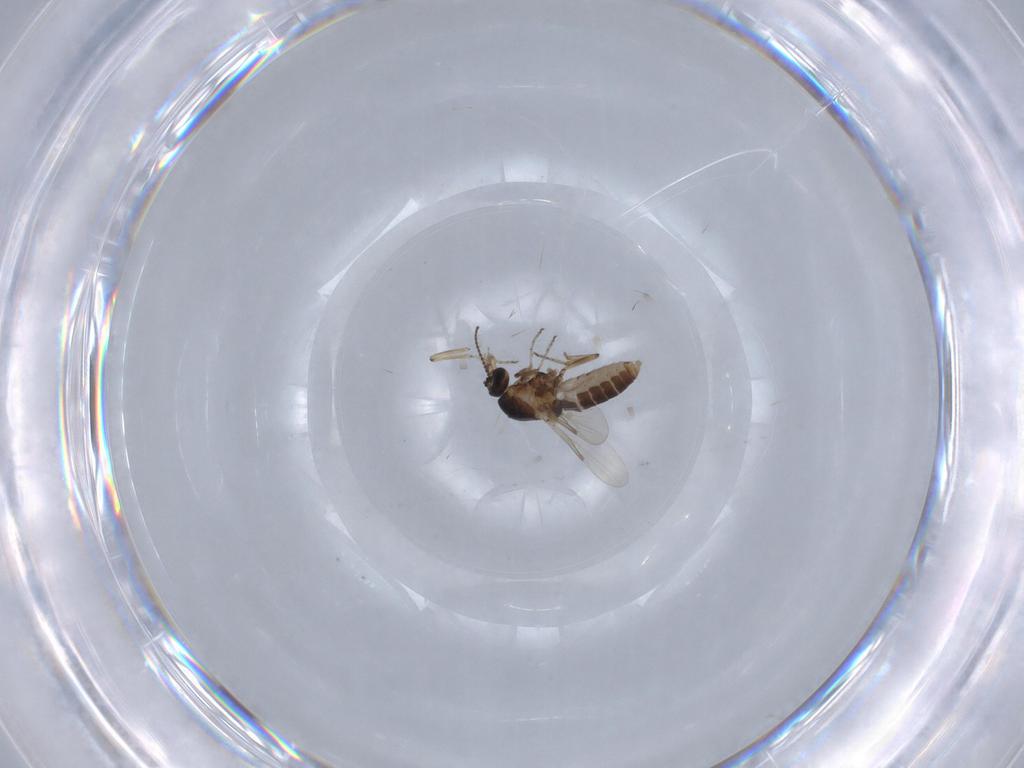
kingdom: Animalia
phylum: Arthropoda
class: Insecta
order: Diptera
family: Ceratopogonidae
